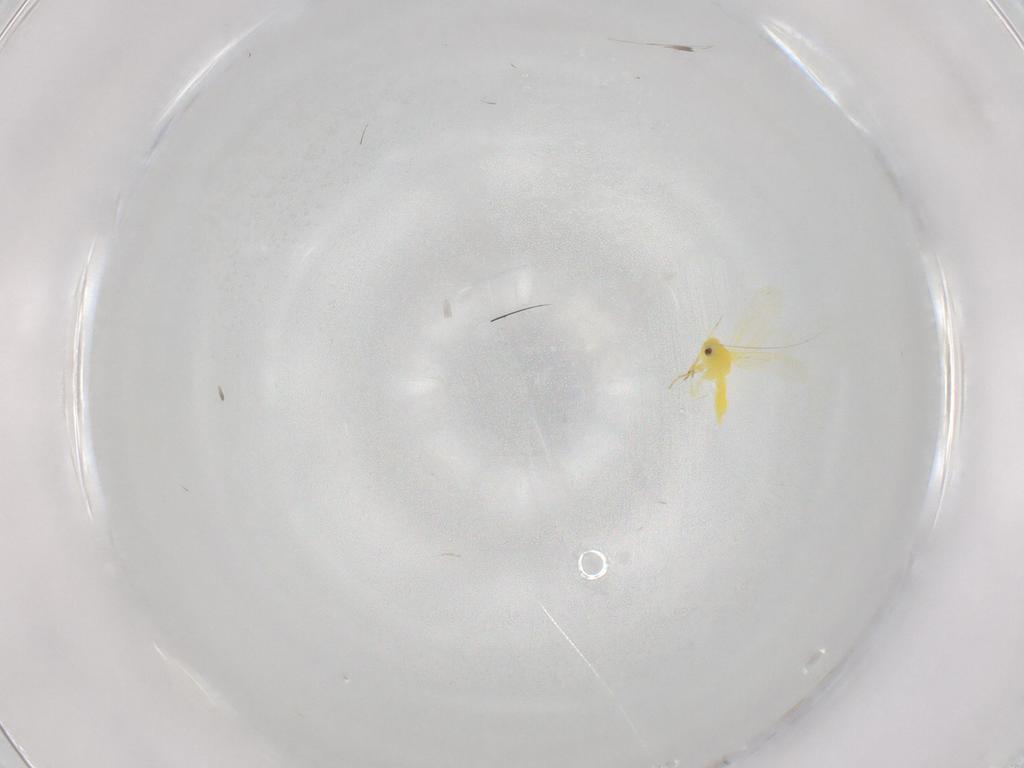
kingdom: Animalia
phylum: Arthropoda
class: Insecta
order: Hemiptera
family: Aleyrodidae
